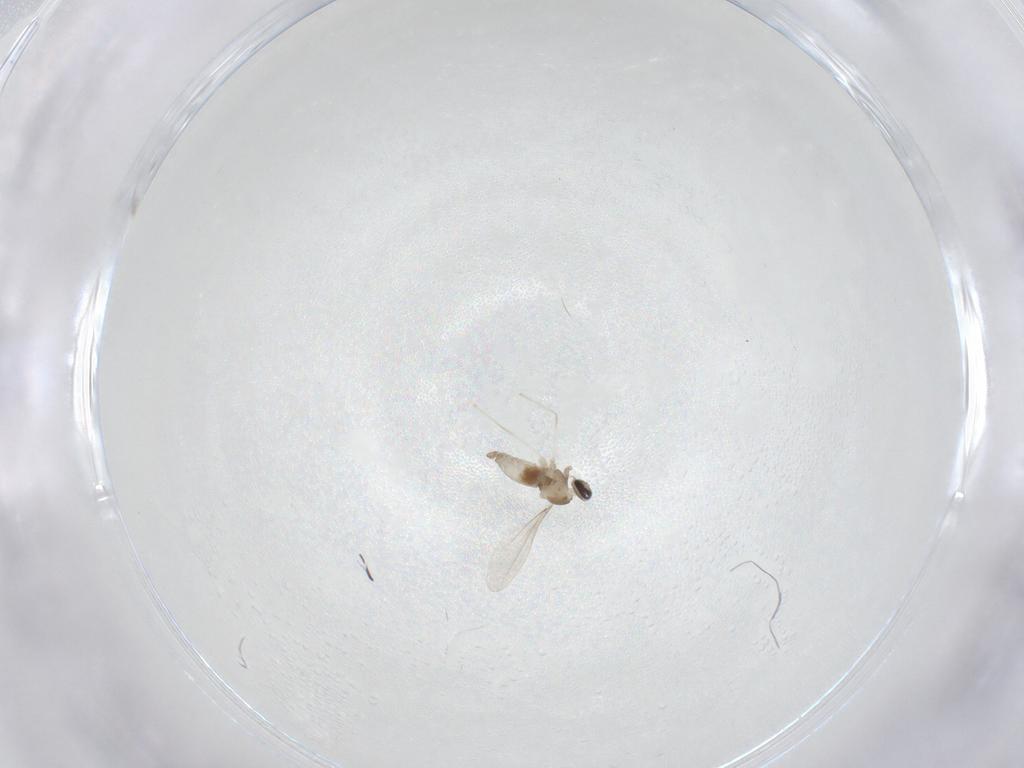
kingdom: Animalia
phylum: Arthropoda
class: Insecta
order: Diptera
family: Cecidomyiidae
